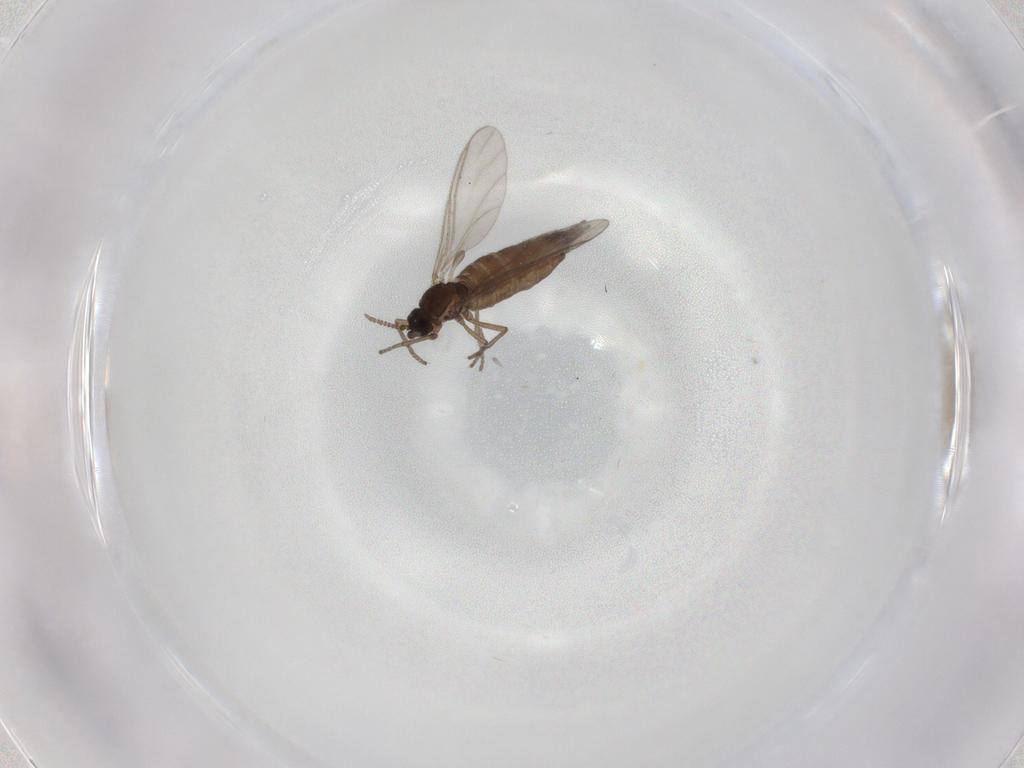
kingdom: Animalia
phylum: Arthropoda
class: Insecta
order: Diptera
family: Sciaridae
